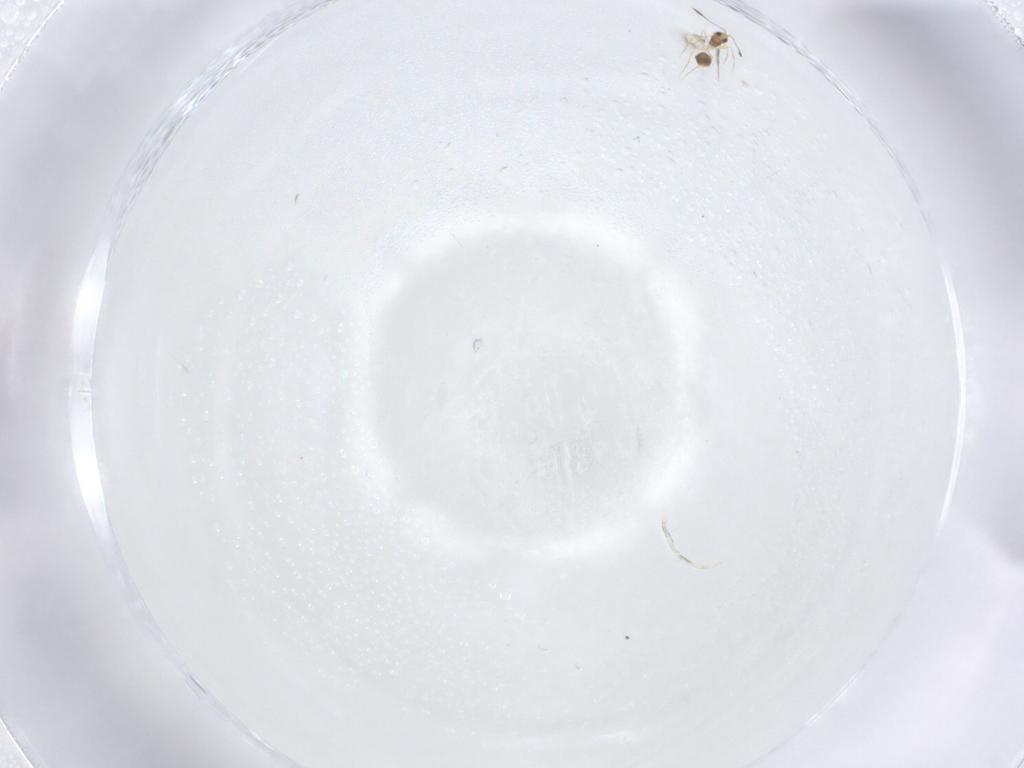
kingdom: Animalia
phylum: Arthropoda
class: Insecta
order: Hymenoptera
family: Mymarommatidae
